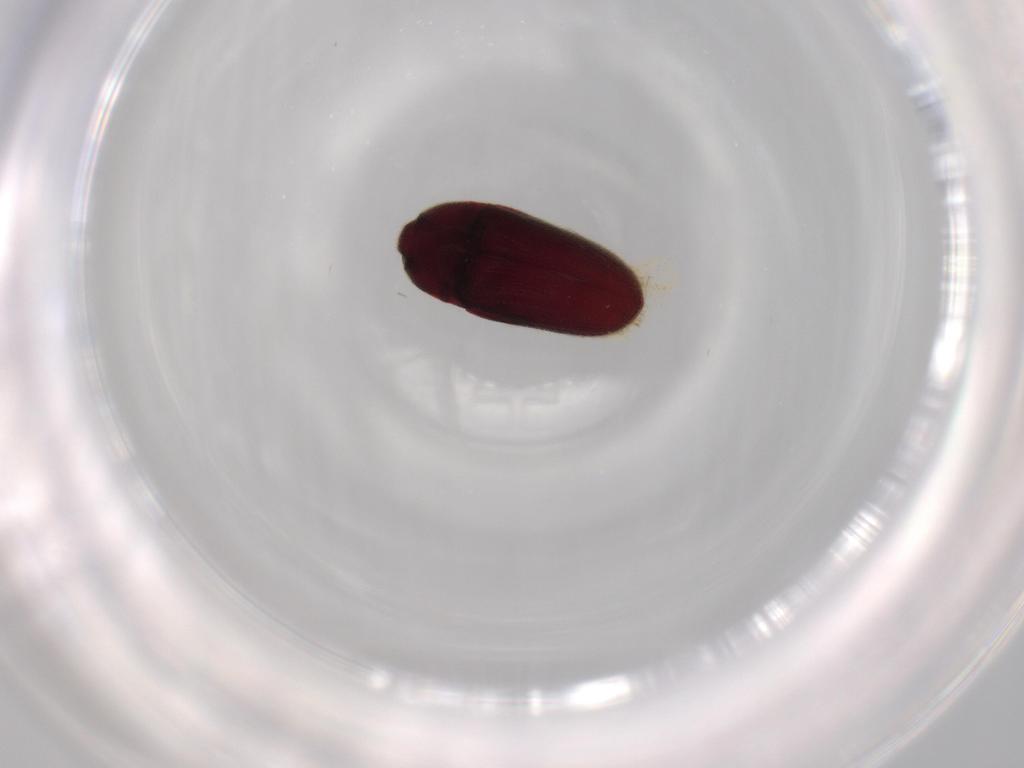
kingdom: Animalia
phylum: Arthropoda
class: Insecta
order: Coleoptera
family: Throscidae
